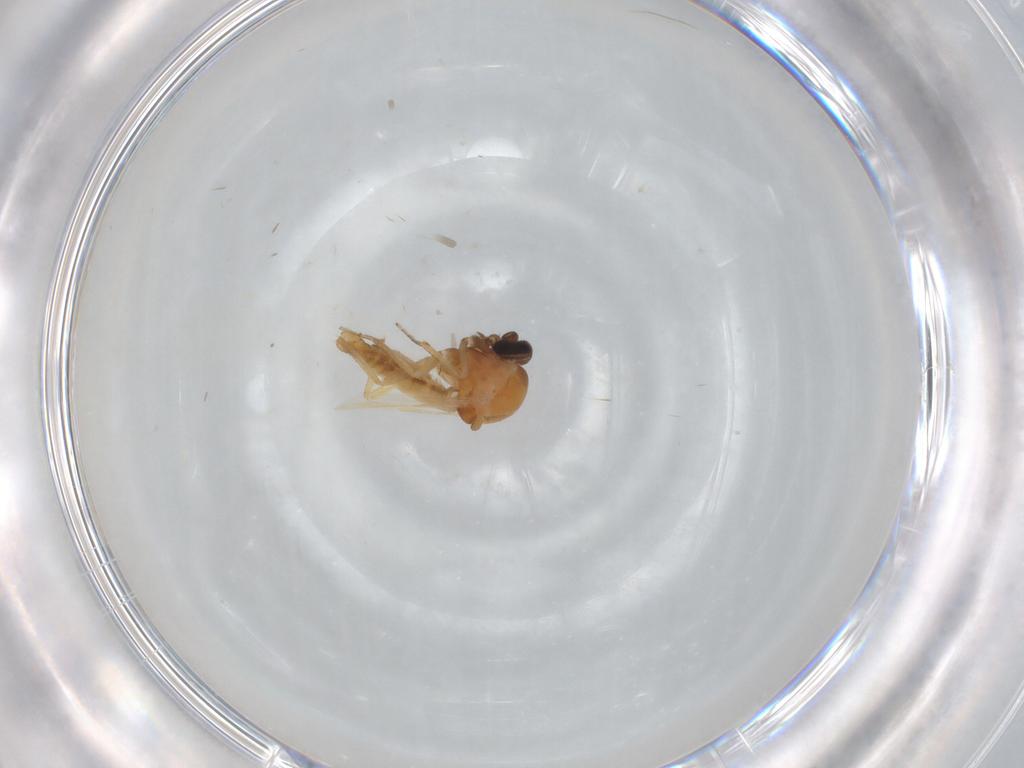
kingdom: Animalia
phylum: Arthropoda
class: Insecta
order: Diptera
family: Ceratopogonidae
